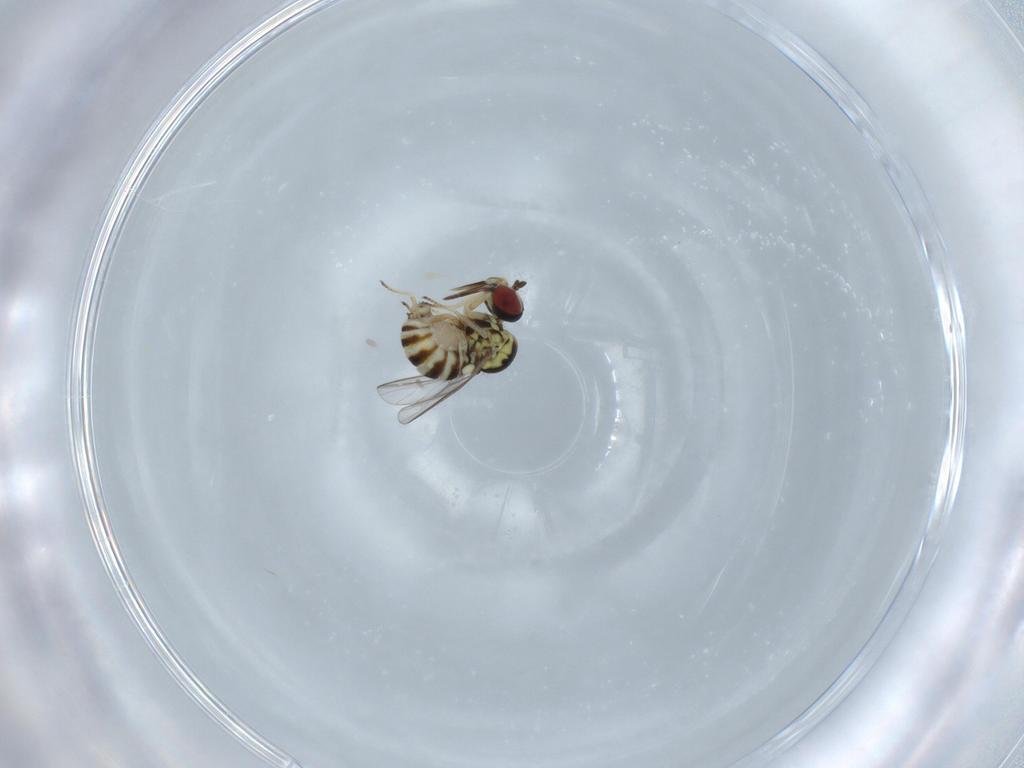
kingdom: Animalia
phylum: Arthropoda
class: Insecta
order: Diptera
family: Bombyliidae
